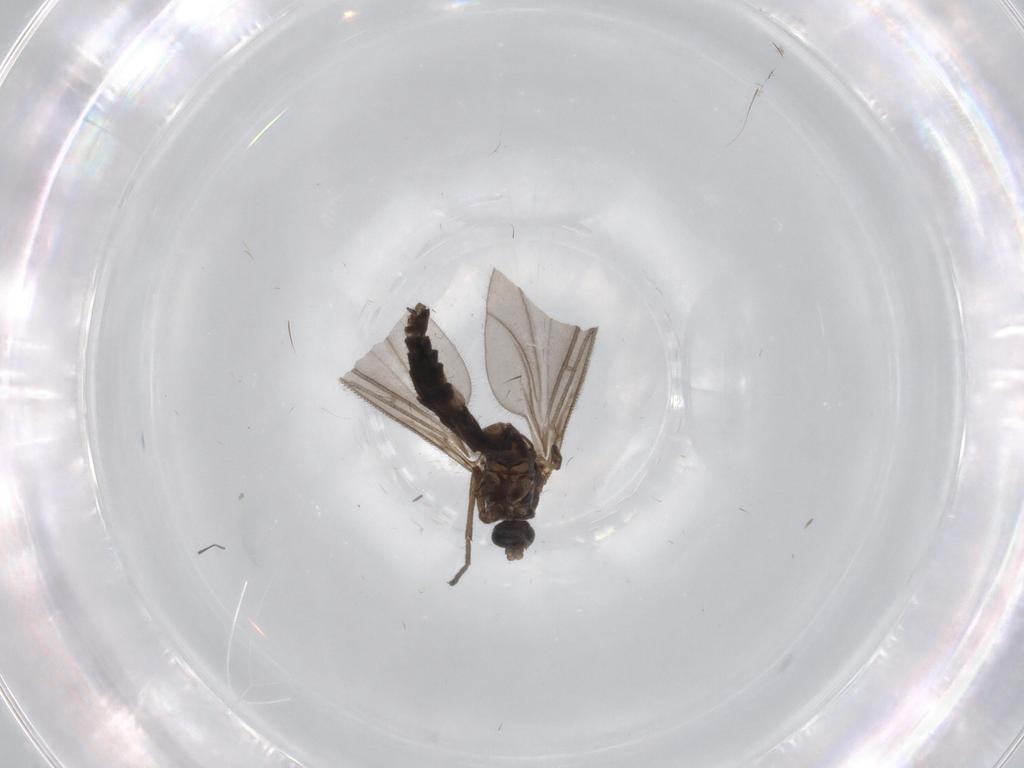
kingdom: Animalia
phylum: Arthropoda
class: Insecta
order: Diptera
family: Sciaridae
